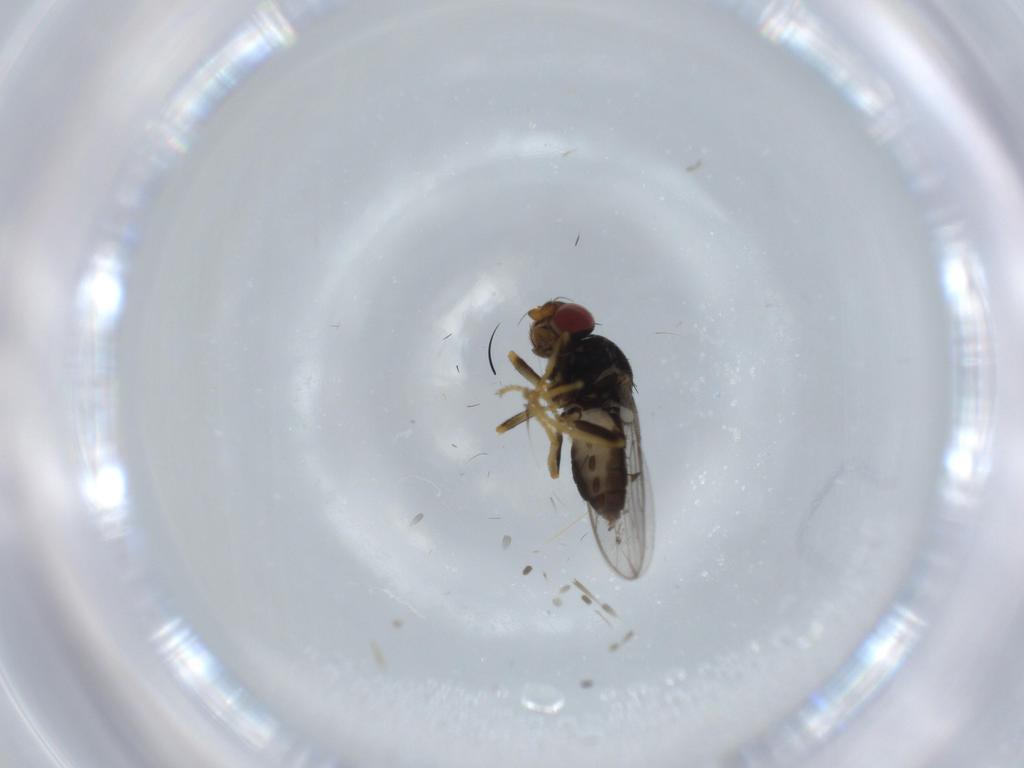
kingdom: Animalia
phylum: Arthropoda
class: Insecta
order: Diptera
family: Chloropidae
